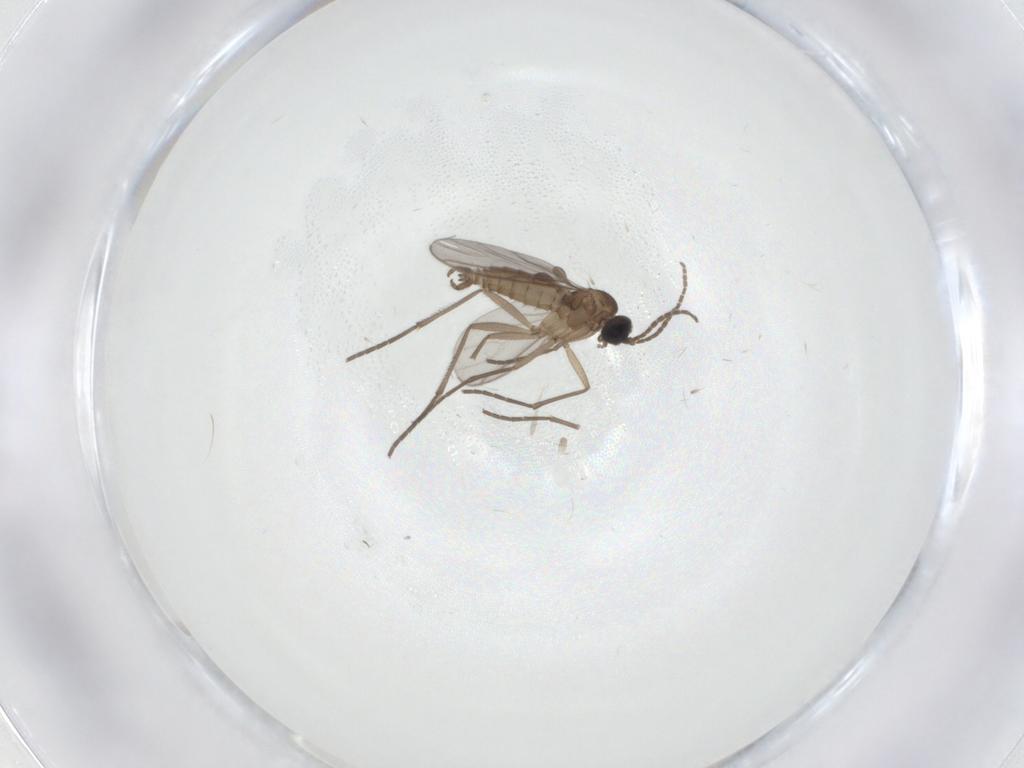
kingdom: Animalia
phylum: Arthropoda
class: Insecta
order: Diptera
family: Sciaridae
